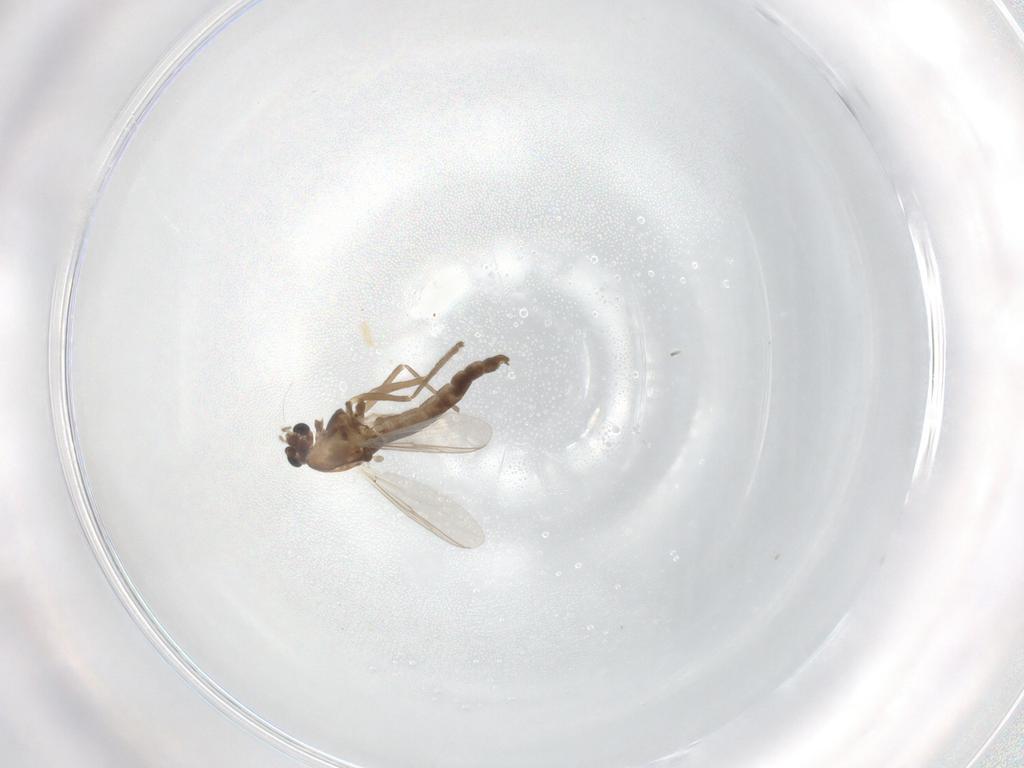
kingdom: Animalia
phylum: Arthropoda
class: Insecta
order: Diptera
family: Chironomidae
